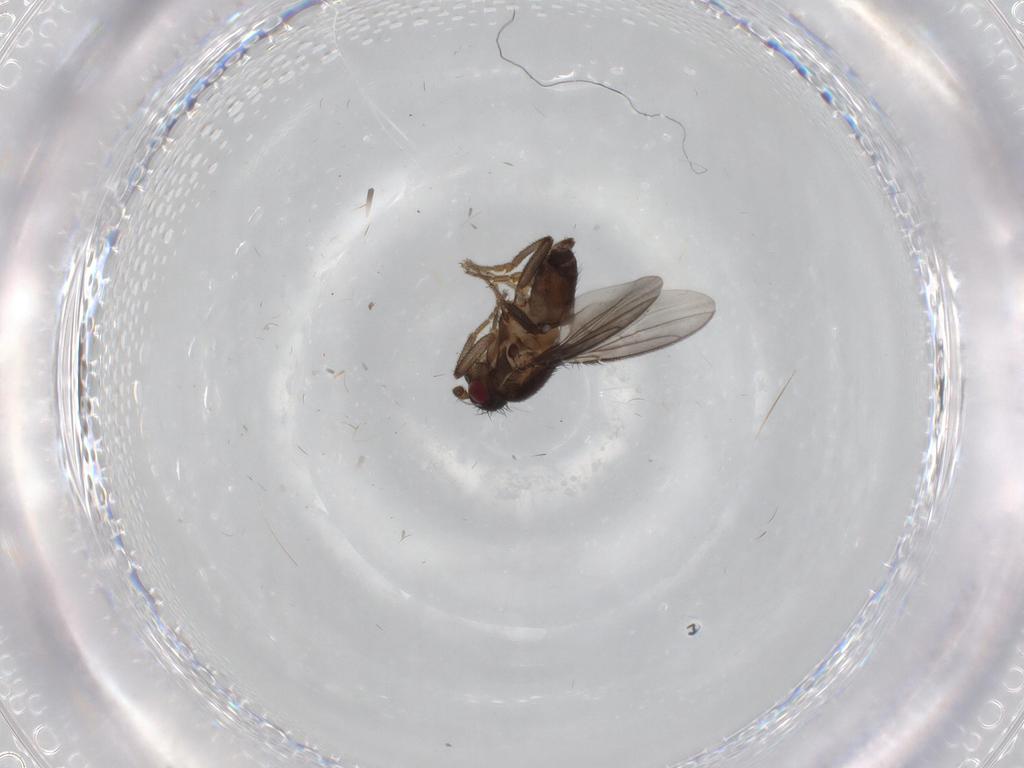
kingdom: Animalia
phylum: Arthropoda
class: Insecta
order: Diptera
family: Sphaeroceridae
